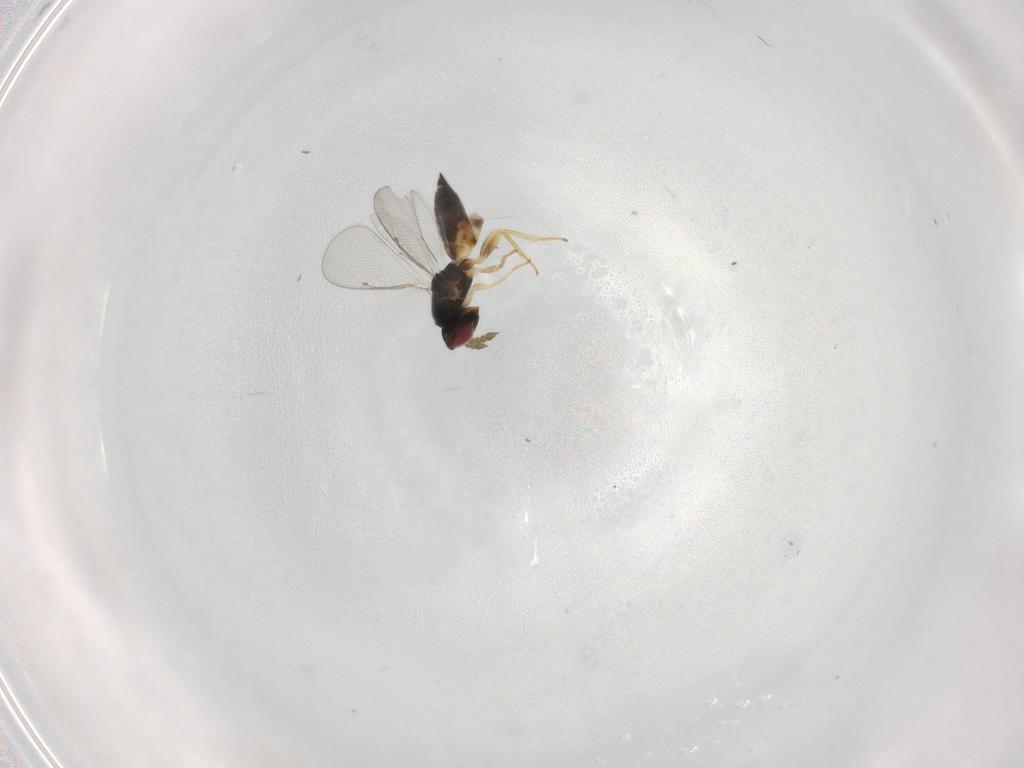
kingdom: Animalia
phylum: Arthropoda
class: Insecta
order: Hymenoptera
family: Eulophidae
